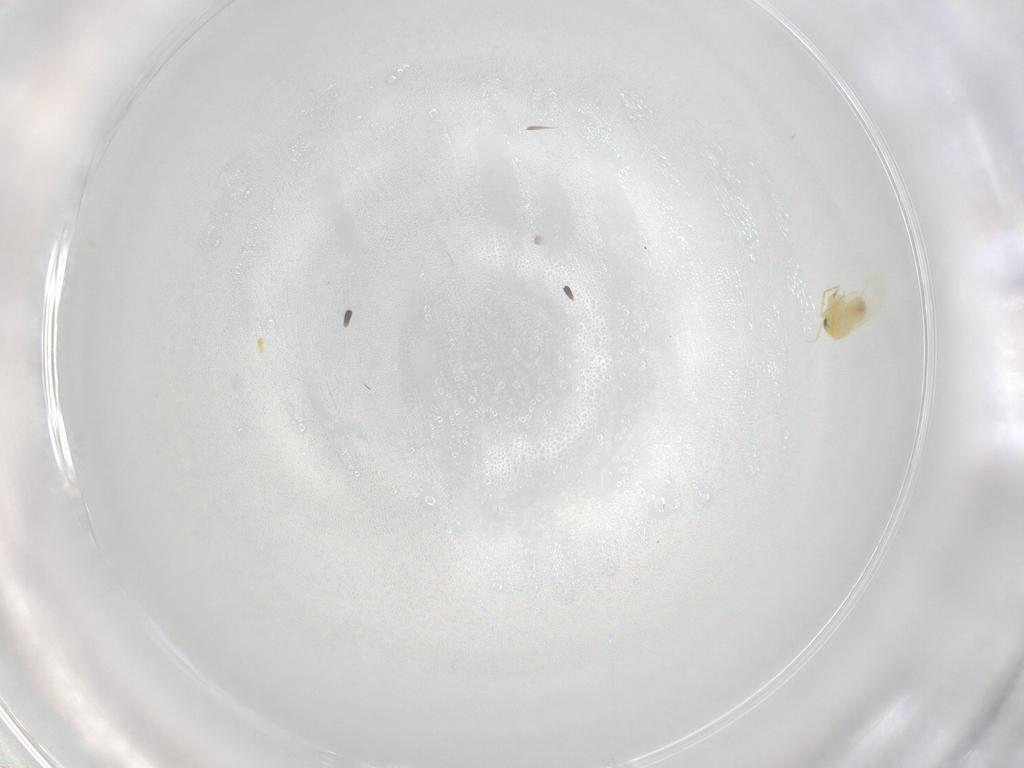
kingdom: Animalia
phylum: Arthropoda
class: Insecta
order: Hemiptera
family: Aleyrodidae
